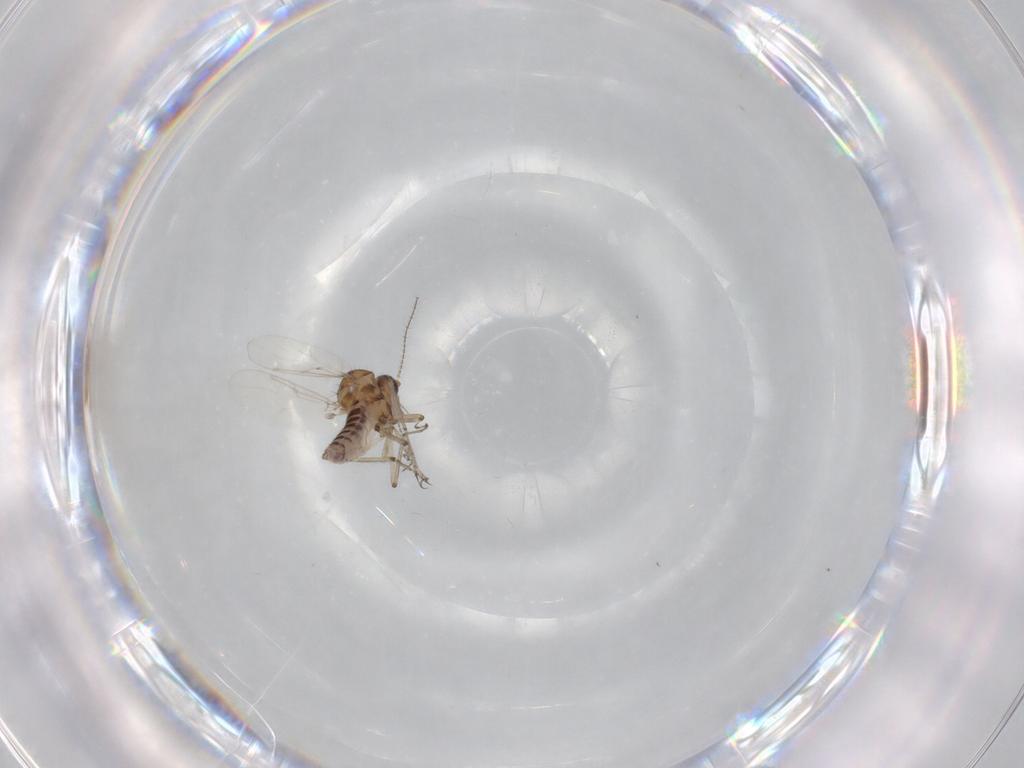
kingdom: Animalia
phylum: Arthropoda
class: Insecta
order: Diptera
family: Ceratopogonidae
